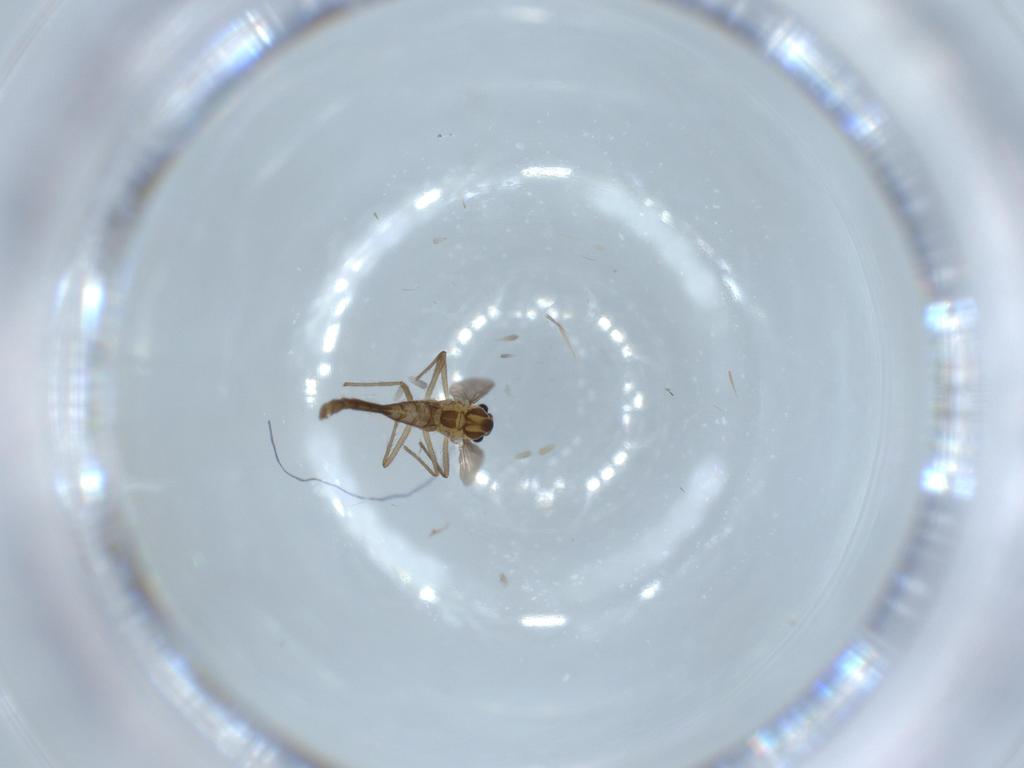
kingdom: Animalia
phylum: Arthropoda
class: Insecta
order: Diptera
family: Chironomidae
